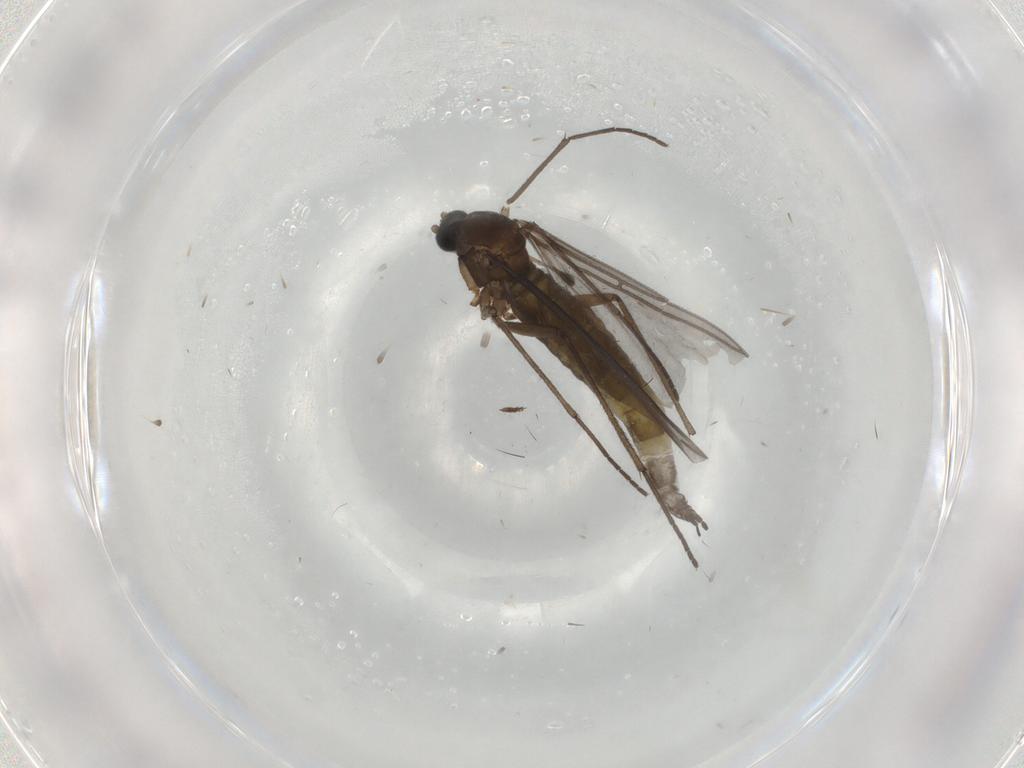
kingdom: Animalia
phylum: Arthropoda
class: Insecta
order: Diptera
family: Sciaridae
